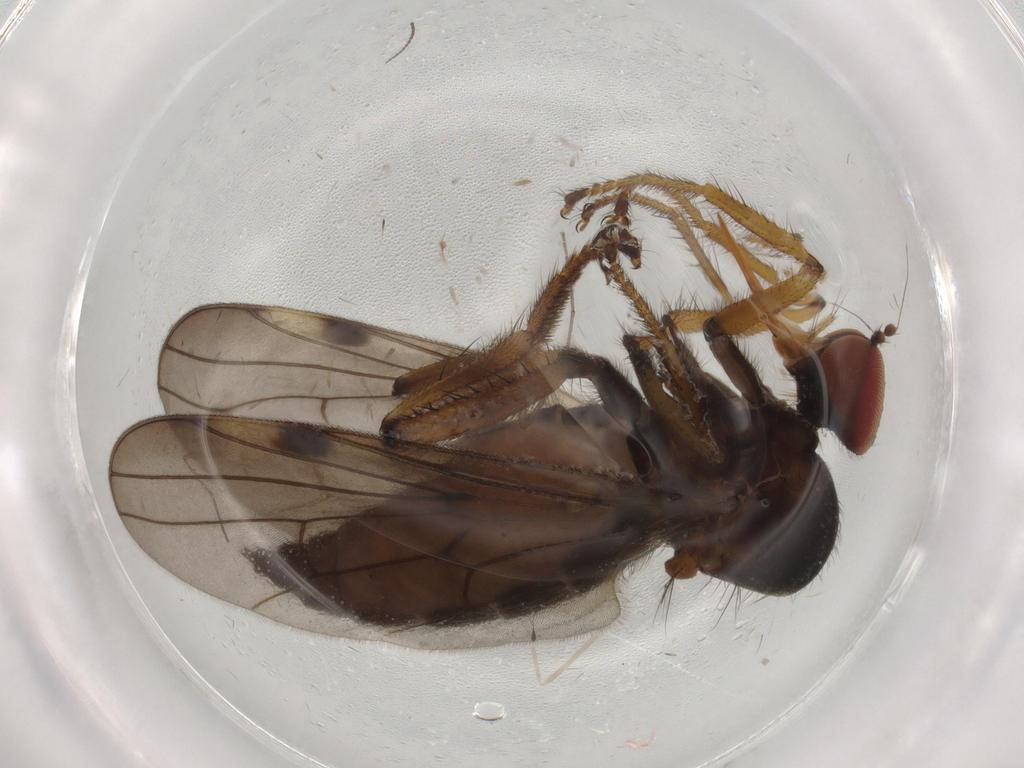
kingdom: Animalia
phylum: Arthropoda
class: Insecta
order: Diptera
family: Hybotidae
